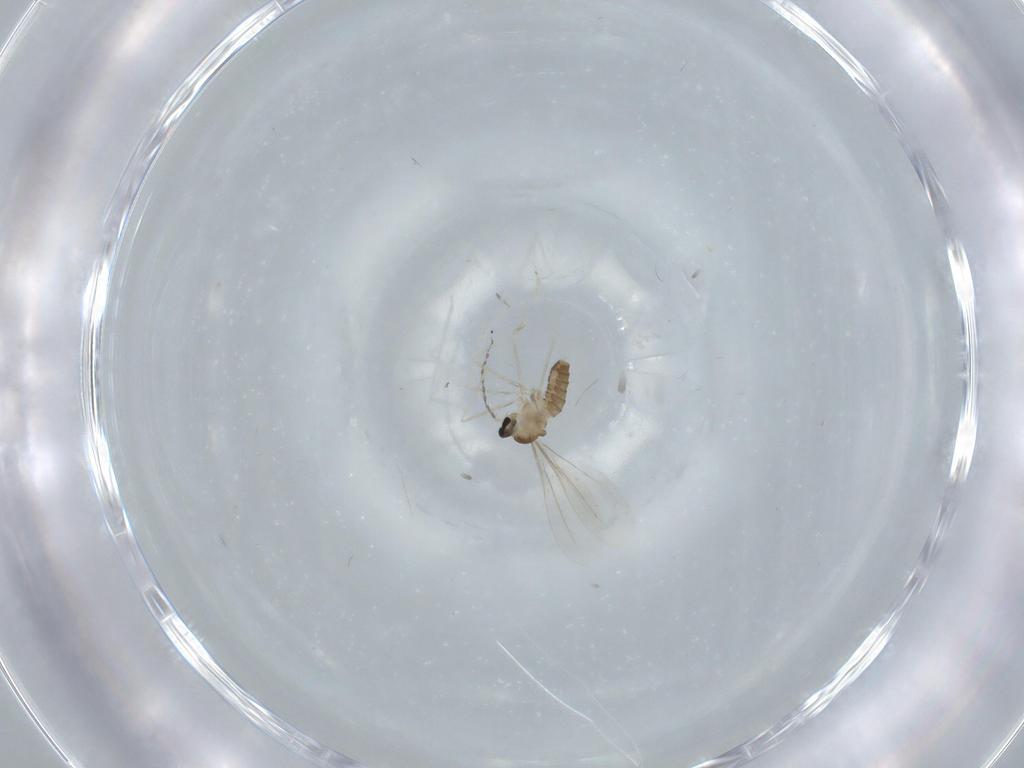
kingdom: Animalia
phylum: Arthropoda
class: Insecta
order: Diptera
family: Cecidomyiidae
